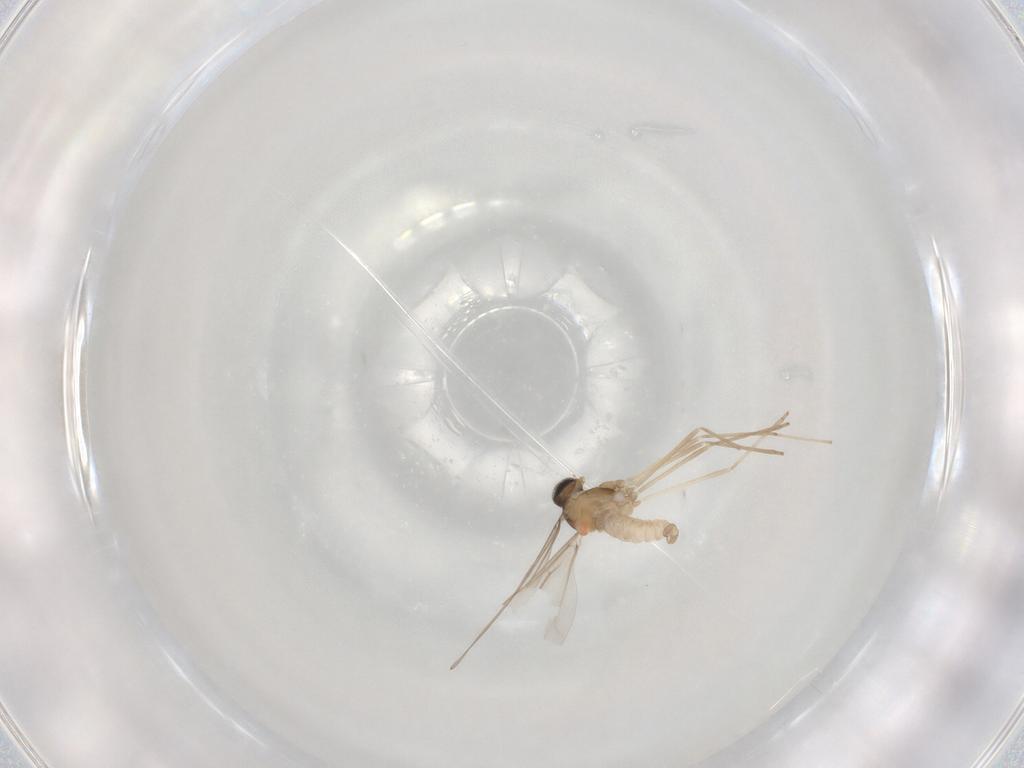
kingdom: Animalia
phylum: Arthropoda
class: Insecta
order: Diptera
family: Cecidomyiidae
